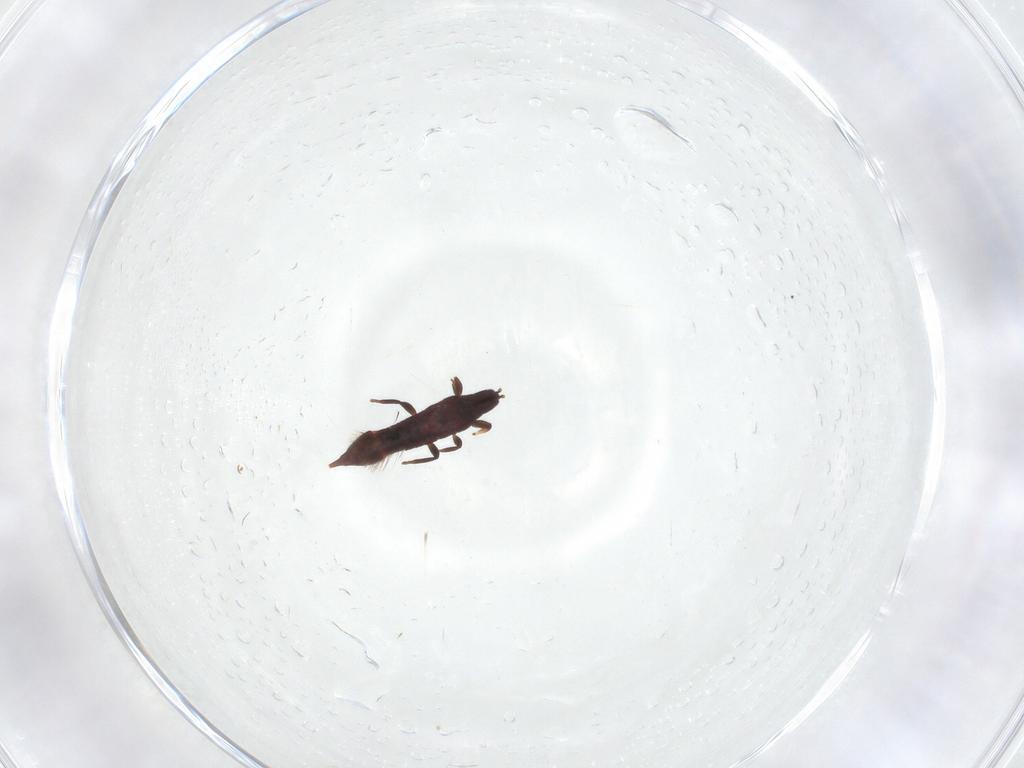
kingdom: Animalia
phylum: Arthropoda
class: Insecta
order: Thysanoptera
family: Phlaeothripidae
